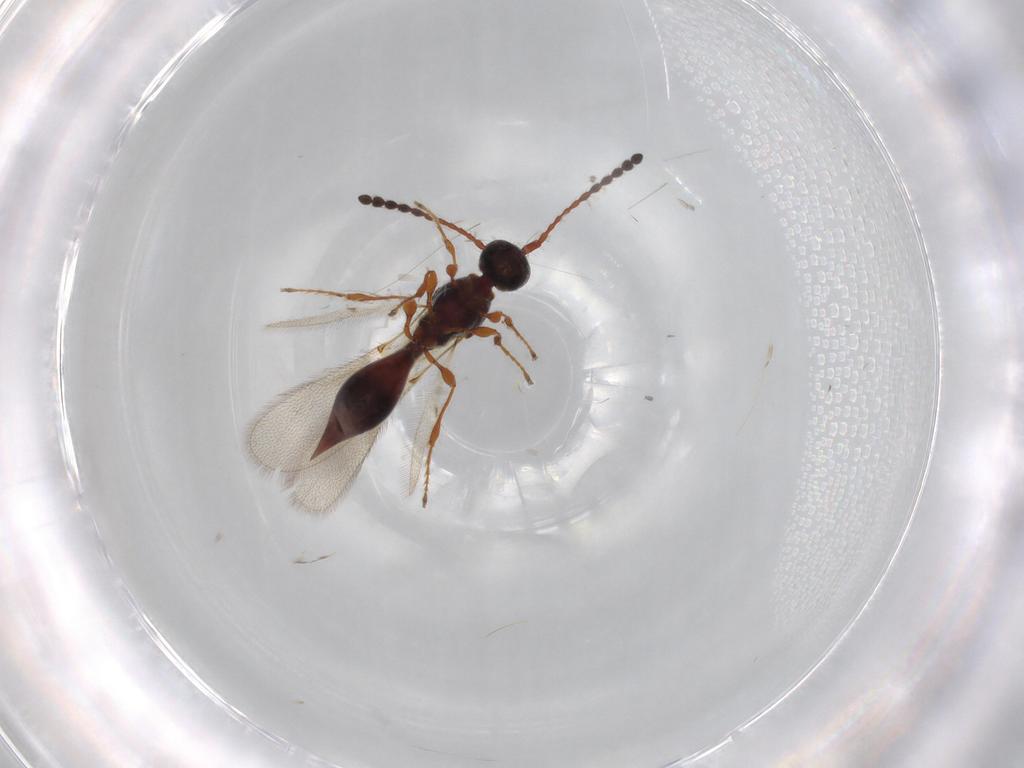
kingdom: Animalia
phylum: Arthropoda
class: Insecta
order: Hymenoptera
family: Diapriidae
